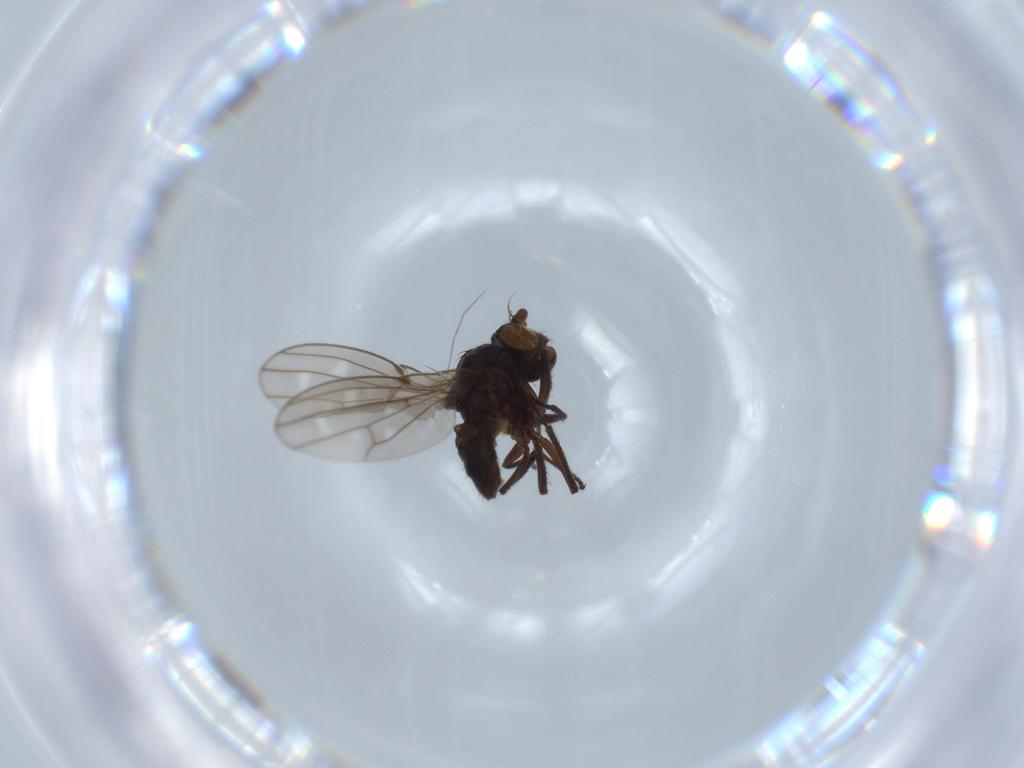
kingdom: Animalia
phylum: Arthropoda
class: Insecta
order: Diptera
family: Ephydridae
